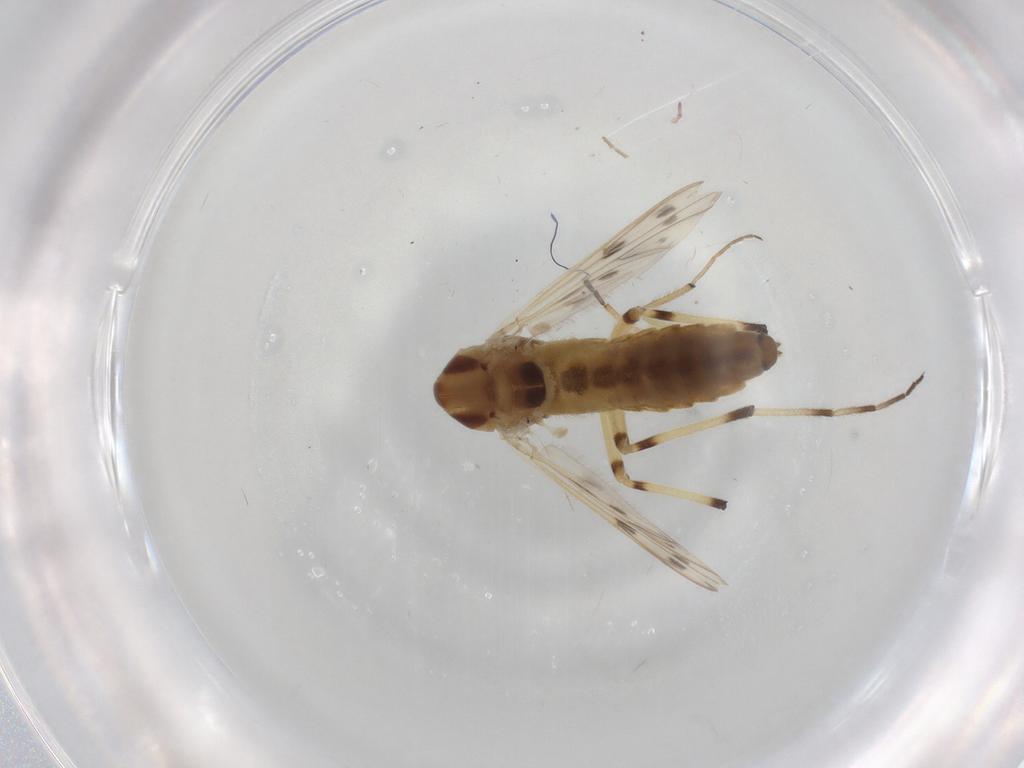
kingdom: Animalia
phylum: Arthropoda
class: Insecta
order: Diptera
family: Chironomidae
